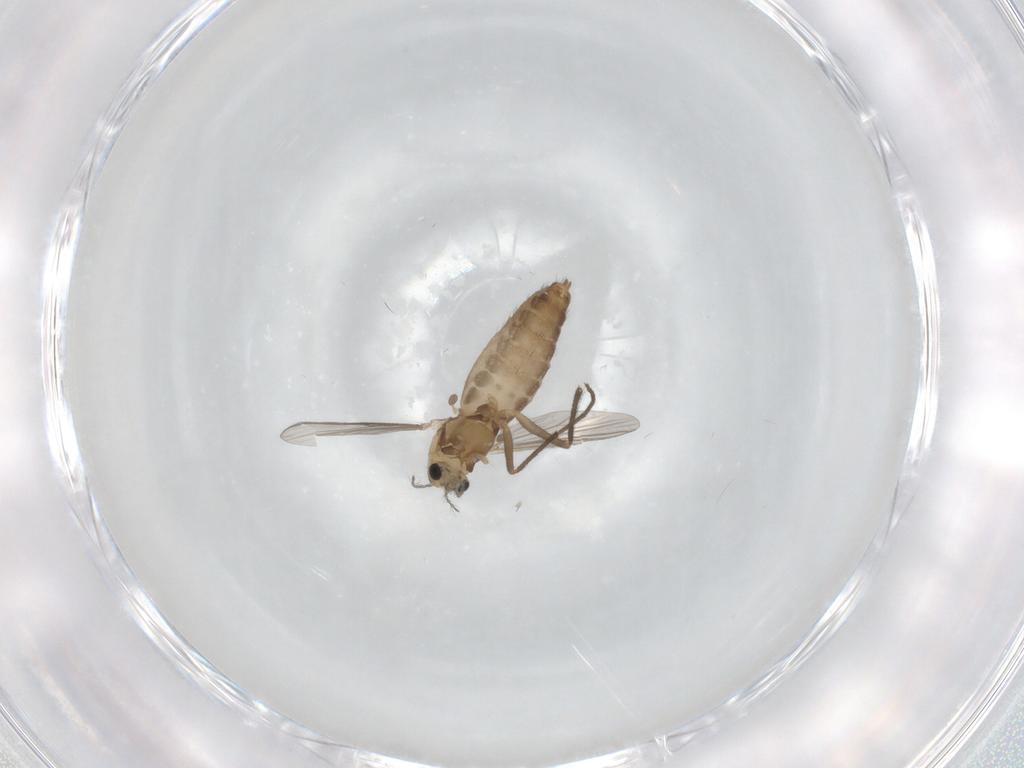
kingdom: Animalia
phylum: Arthropoda
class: Insecta
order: Diptera
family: Chironomidae
